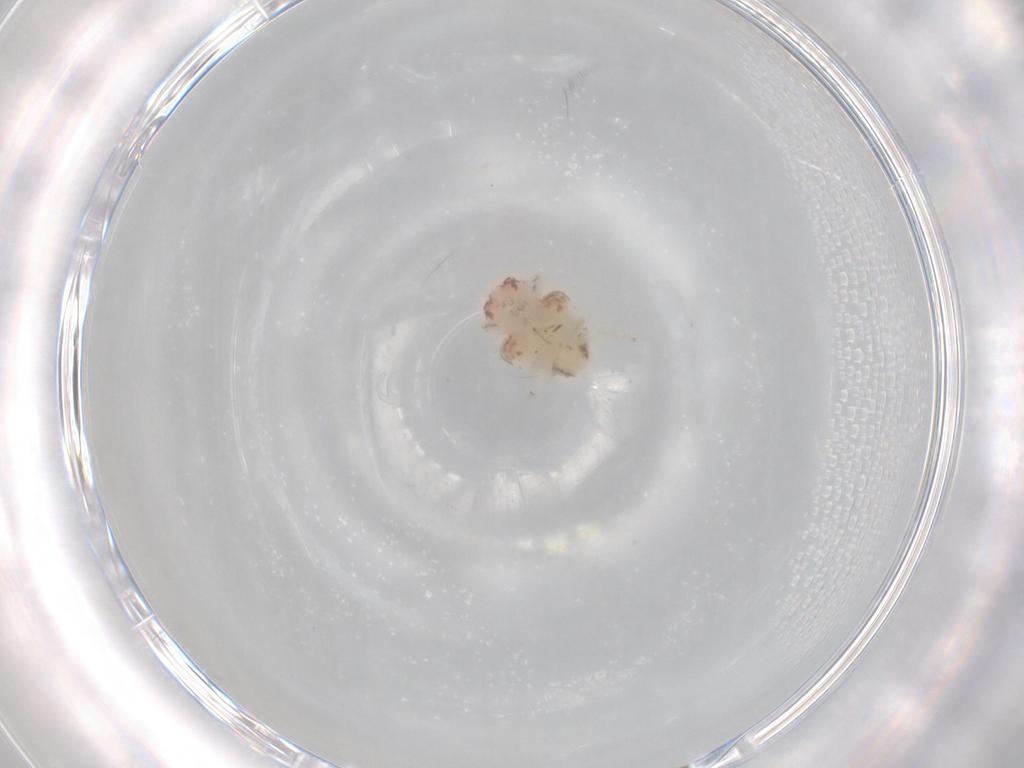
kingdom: Animalia
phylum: Arthropoda
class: Insecta
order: Hemiptera
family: Nogodinidae
